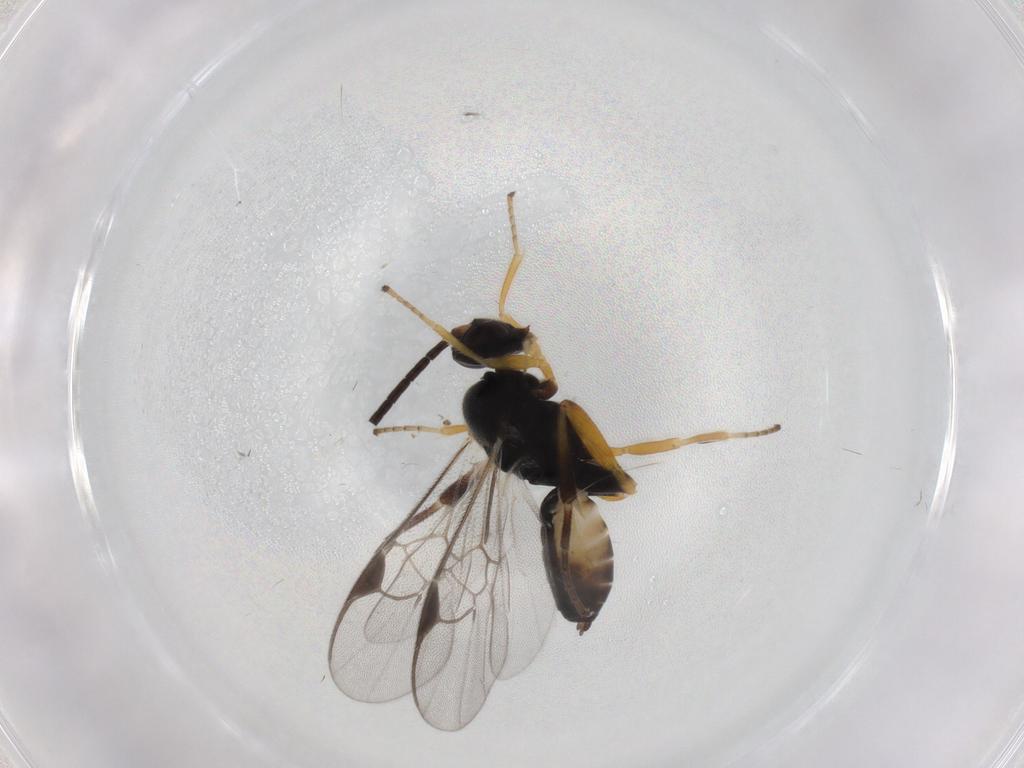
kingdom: Animalia
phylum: Arthropoda
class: Insecta
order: Hymenoptera
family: Braconidae
